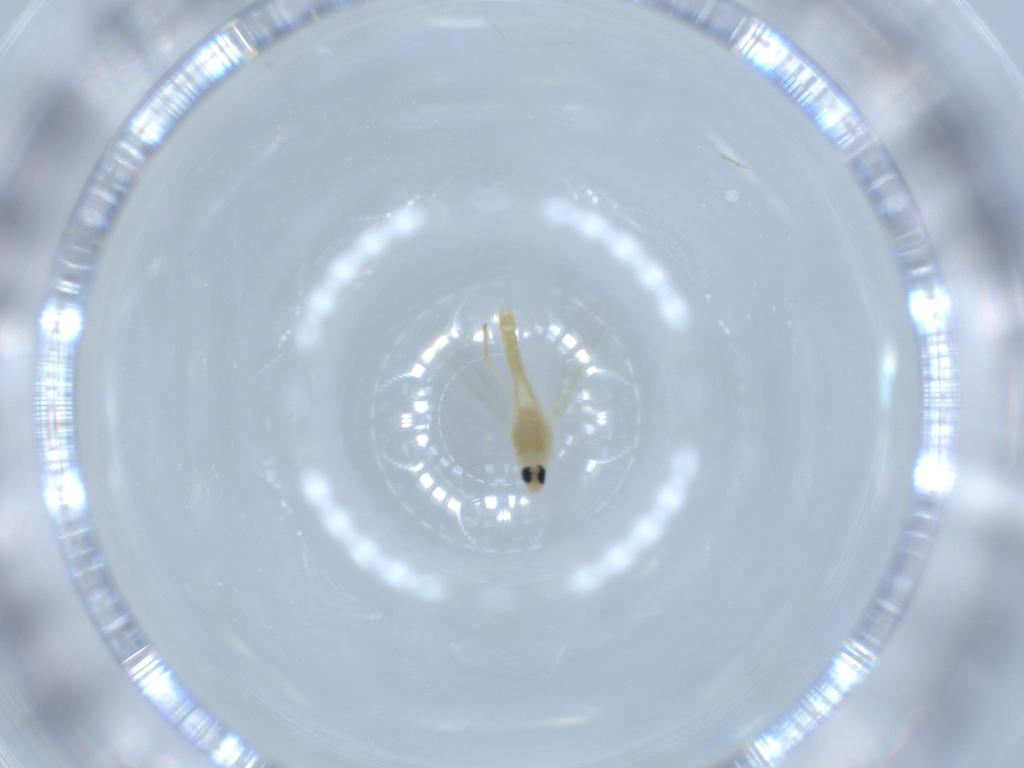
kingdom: Animalia
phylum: Arthropoda
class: Insecta
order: Diptera
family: Chironomidae
